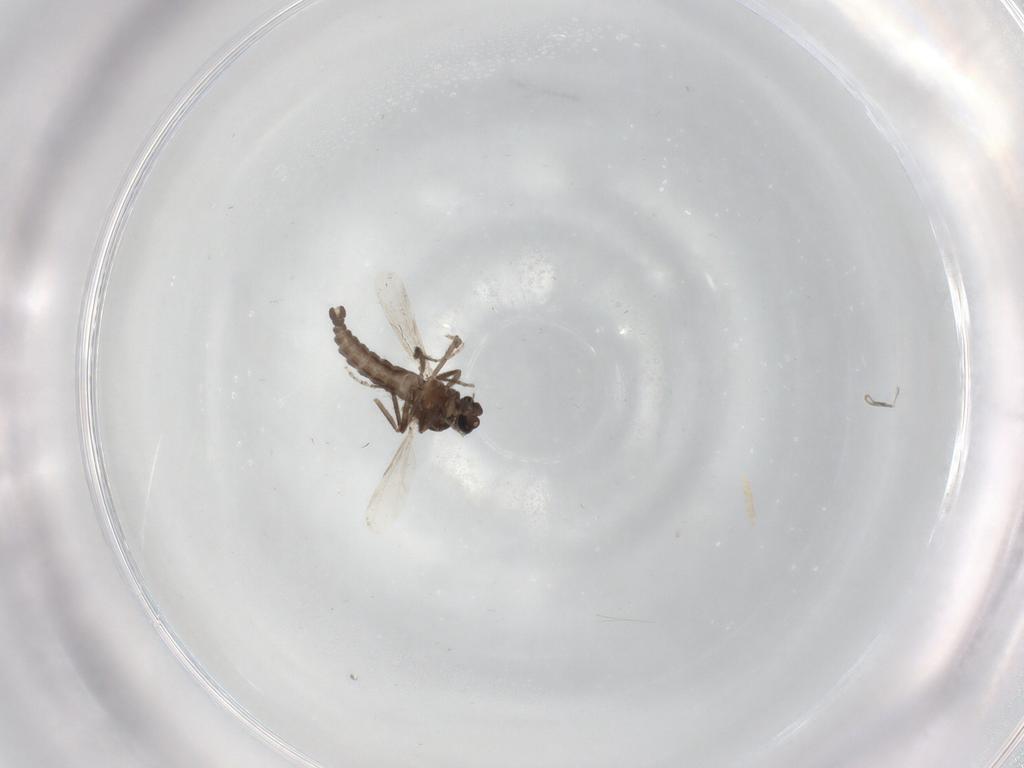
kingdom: Animalia
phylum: Arthropoda
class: Insecta
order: Diptera
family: Ceratopogonidae
